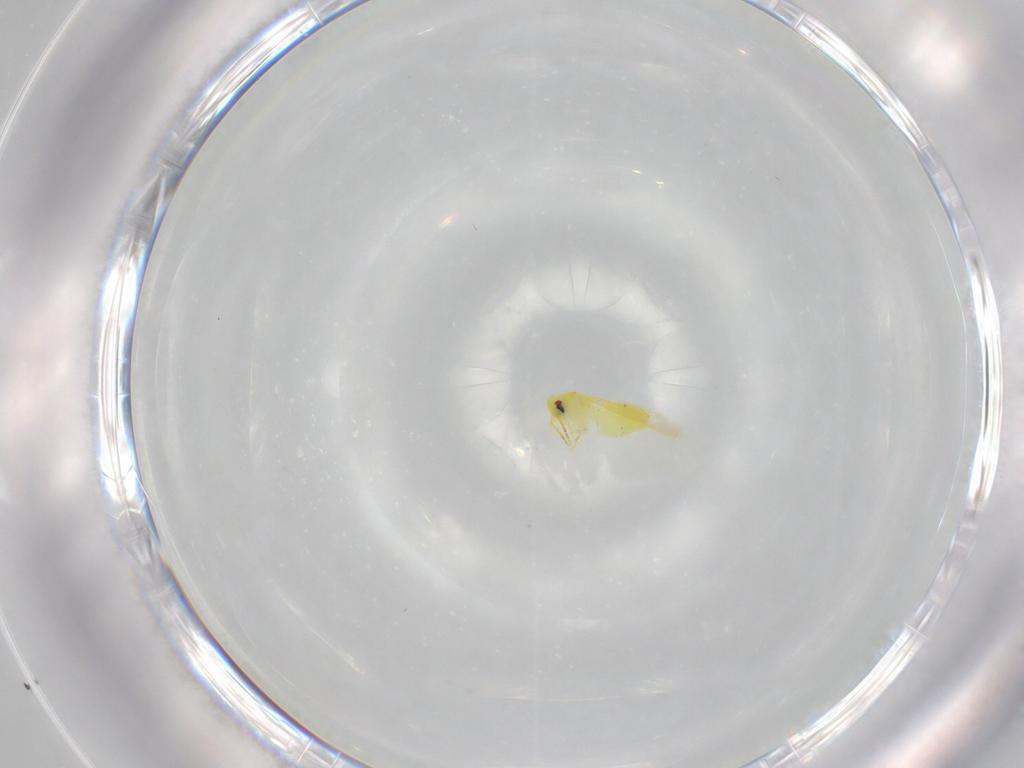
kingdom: Animalia
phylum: Arthropoda
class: Insecta
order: Hemiptera
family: Aleyrodidae
